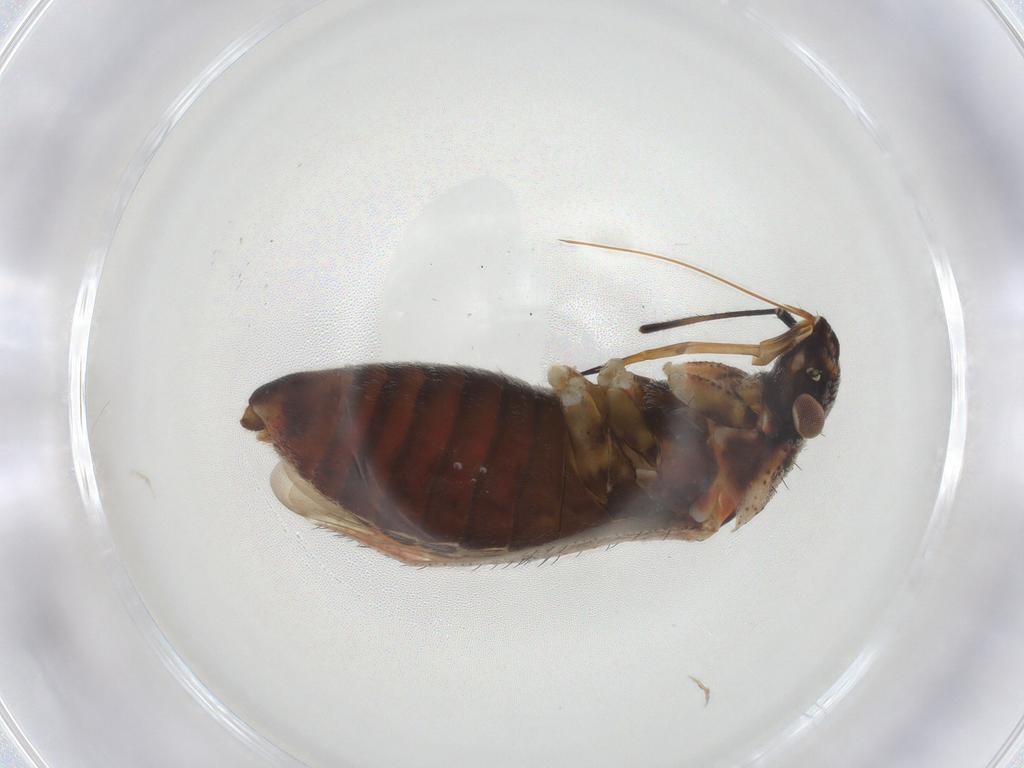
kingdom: Animalia
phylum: Arthropoda
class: Insecta
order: Hemiptera
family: Miridae
